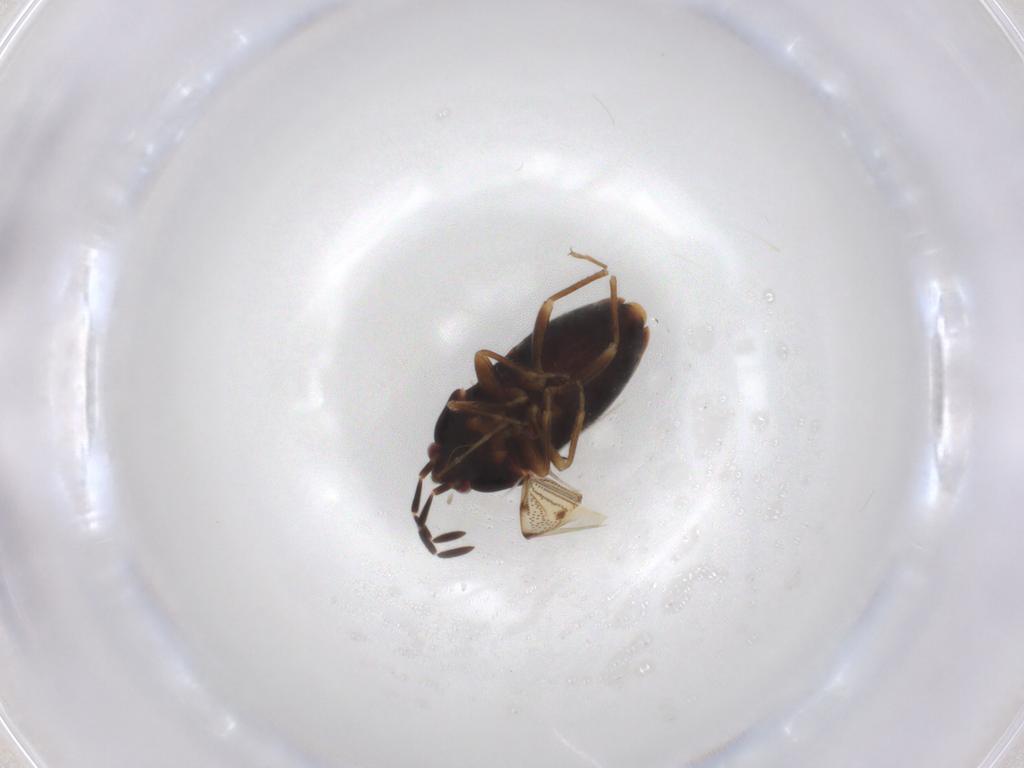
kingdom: Animalia
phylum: Arthropoda
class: Insecta
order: Hemiptera
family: Rhyparochromidae
